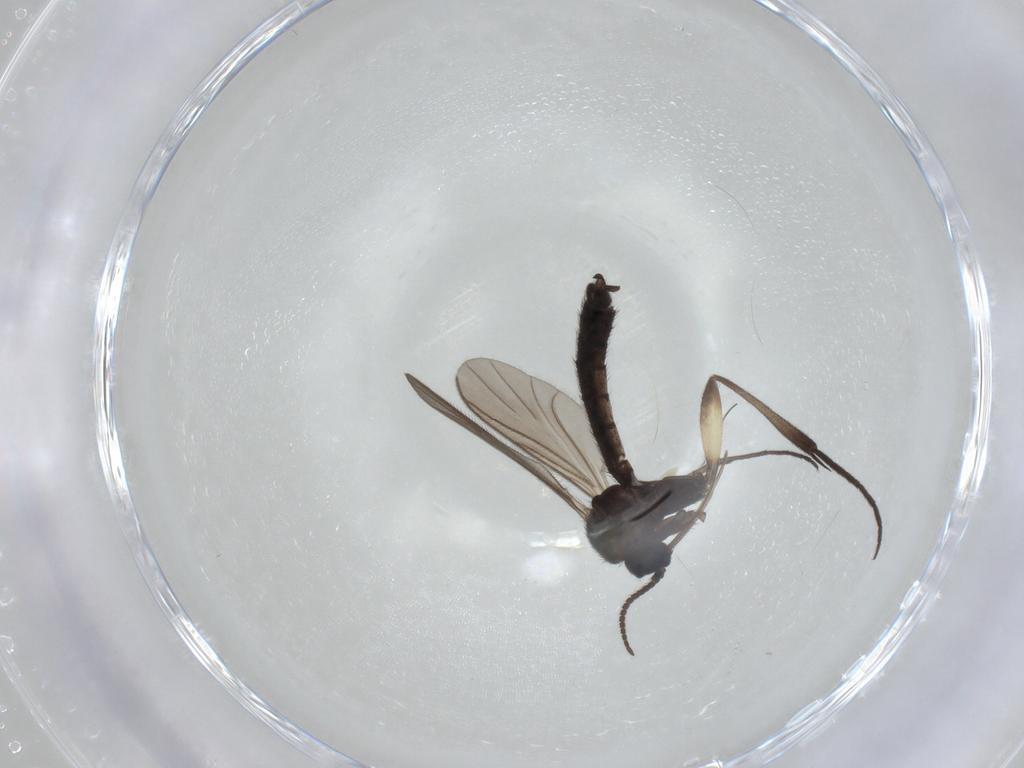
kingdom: Animalia
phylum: Arthropoda
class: Insecta
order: Diptera
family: Keroplatidae
